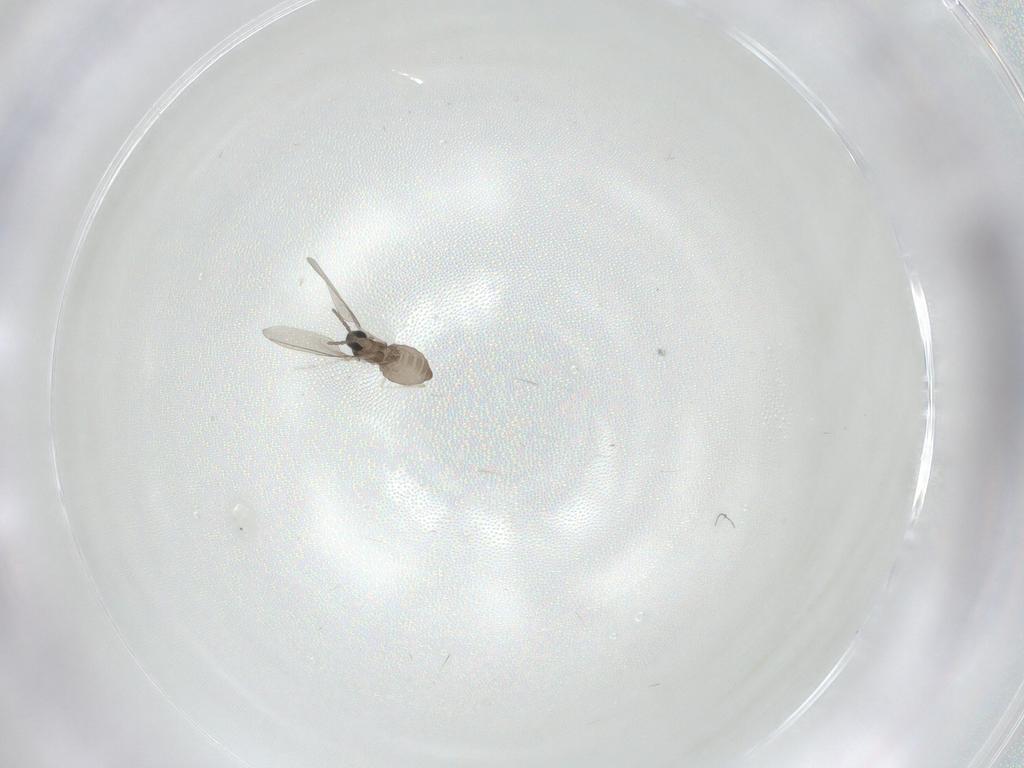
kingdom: Animalia
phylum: Arthropoda
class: Insecta
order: Diptera
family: Cecidomyiidae
